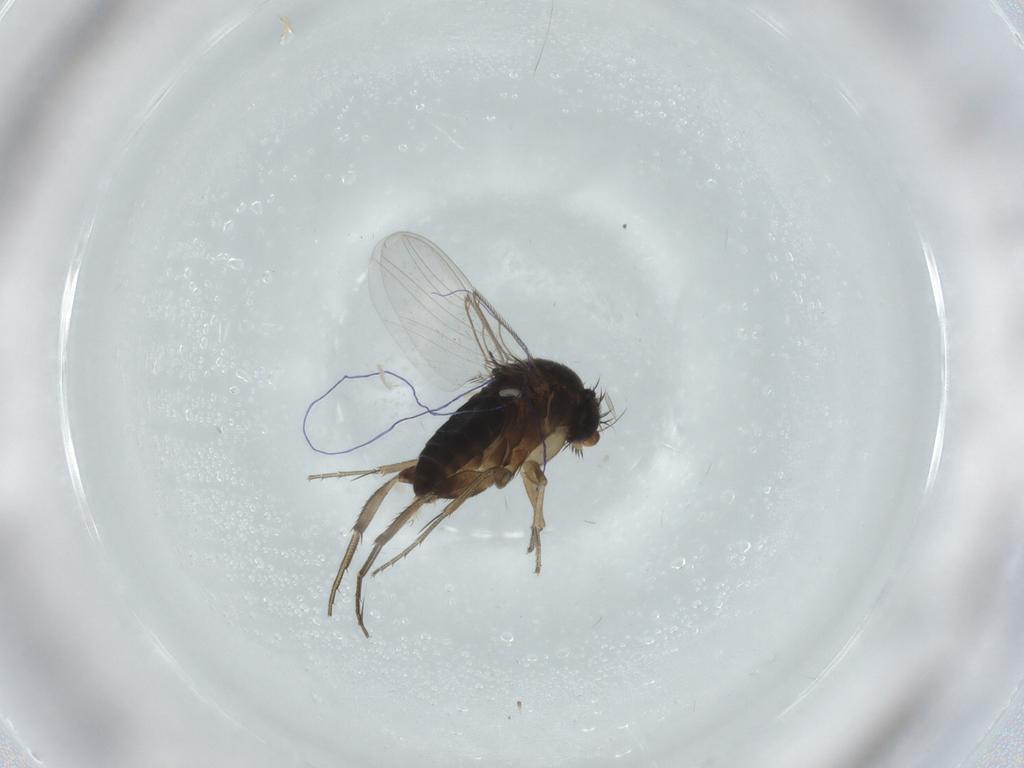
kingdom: Animalia
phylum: Arthropoda
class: Insecta
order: Diptera
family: Phoridae
